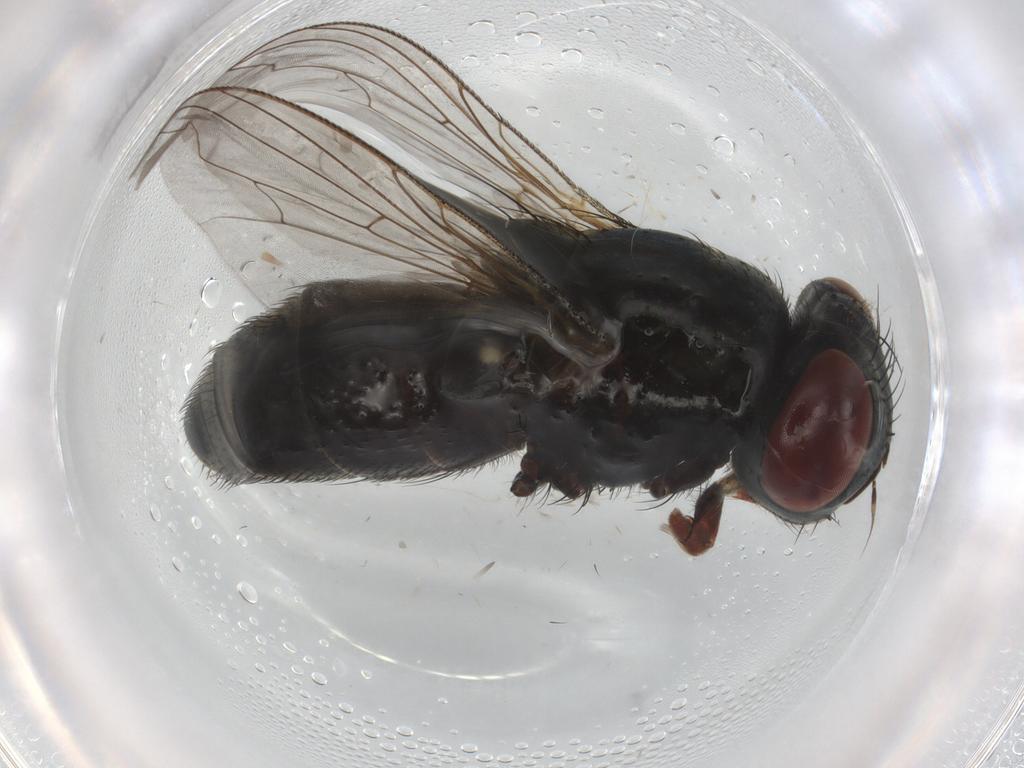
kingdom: Animalia
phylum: Arthropoda
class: Insecta
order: Diptera
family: Sarcophagidae
